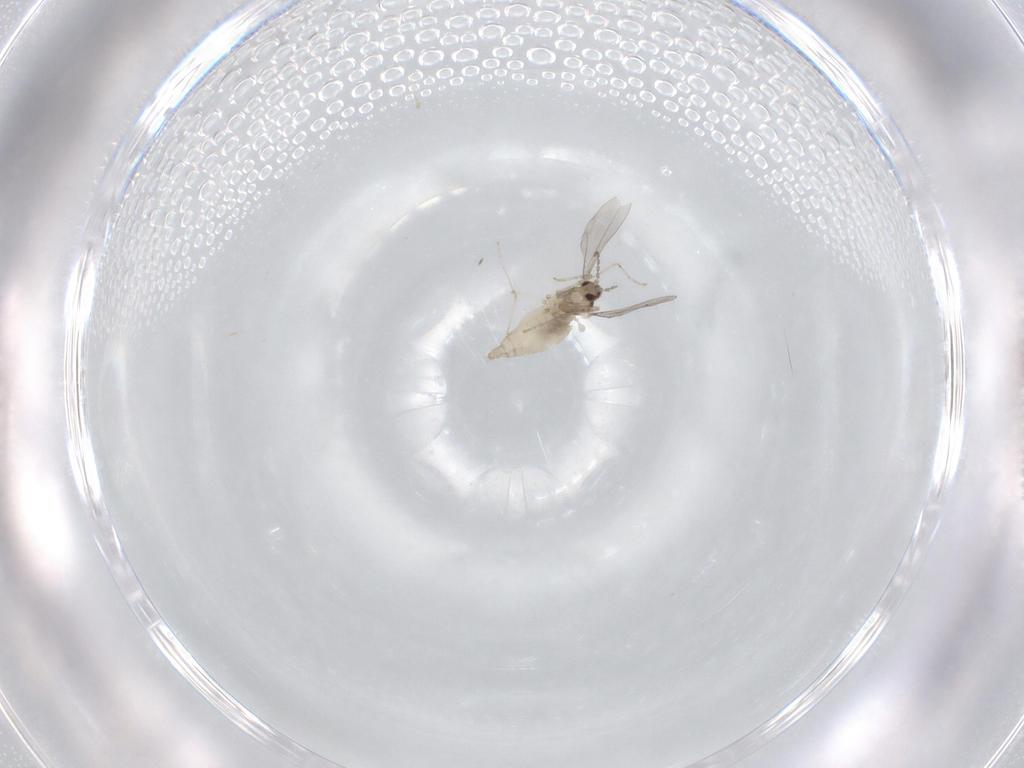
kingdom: Animalia
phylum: Arthropoda
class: Insecta
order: Diptera
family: Cecidomyiidae
